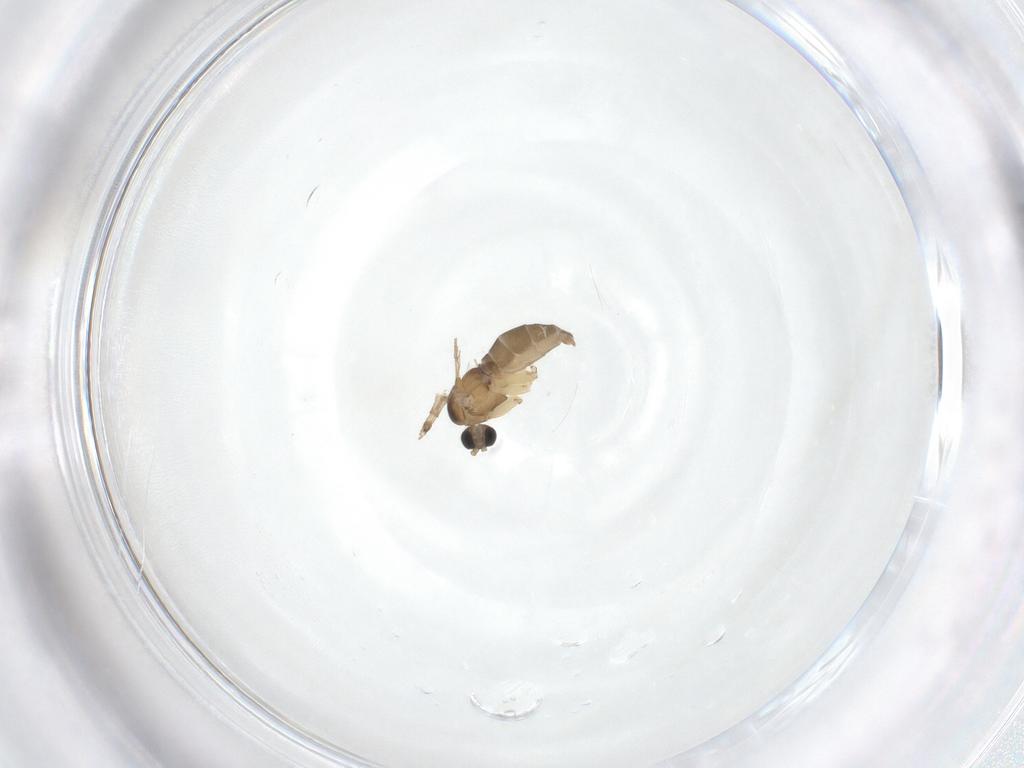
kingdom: Animalia
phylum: Arthropoda
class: Insecta
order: Diptera
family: Sciaridae
